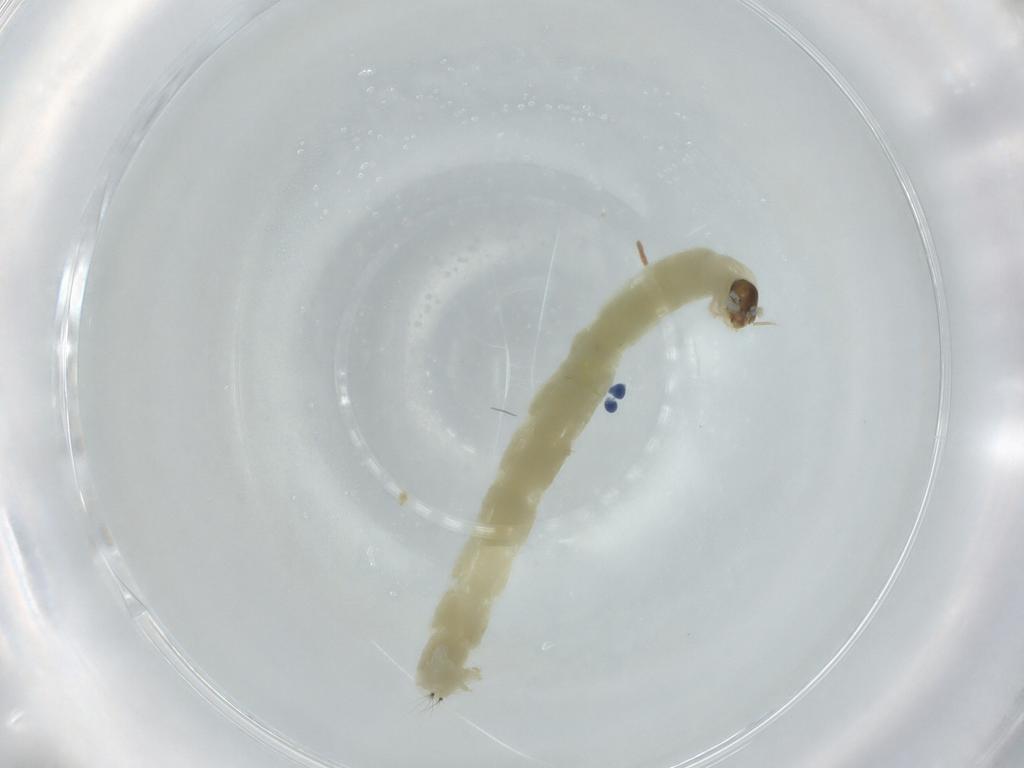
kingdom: Animalia
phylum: Arthropoda
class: Insecta
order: Diptera
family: Chironomidae
